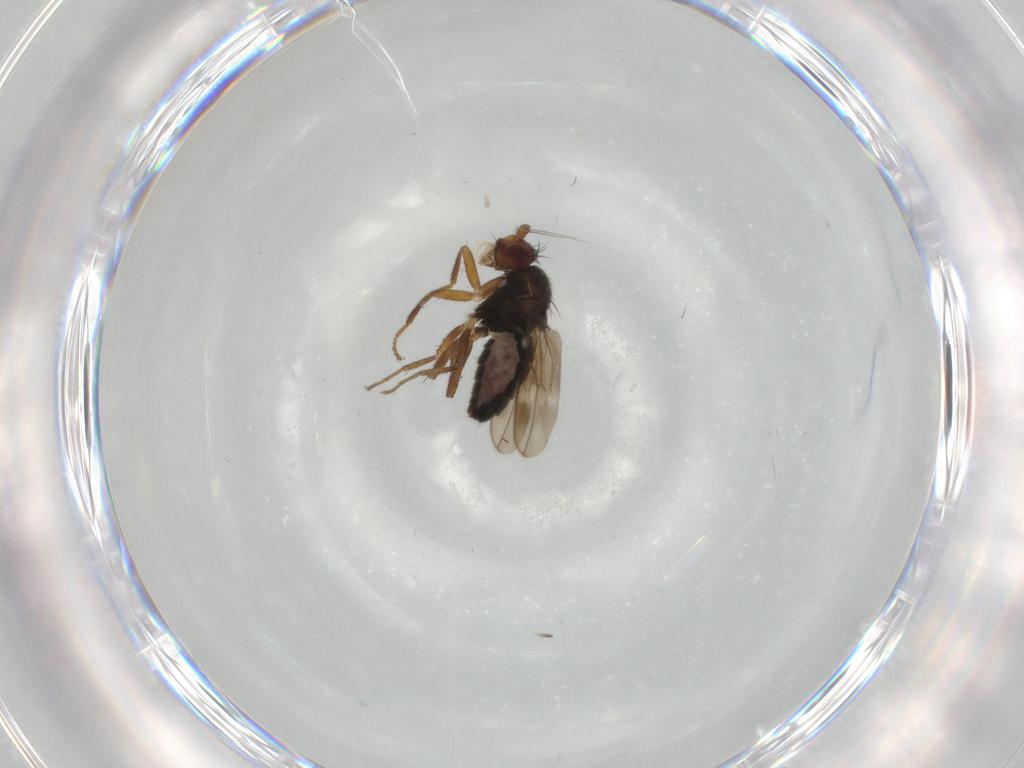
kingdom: Animalia
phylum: Arthropoda
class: Insecta
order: Diptera
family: Sphaeroceridae
